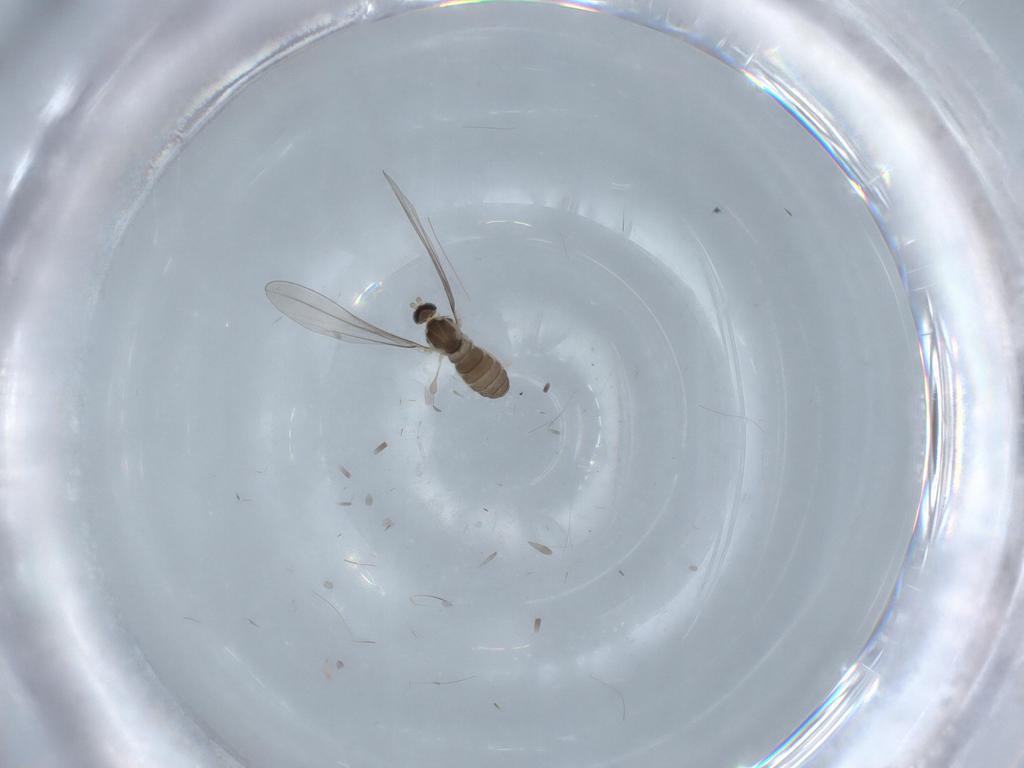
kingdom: Animalia
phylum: Arthropoda
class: Insecta
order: Diptera
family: Cecidomyiidae
